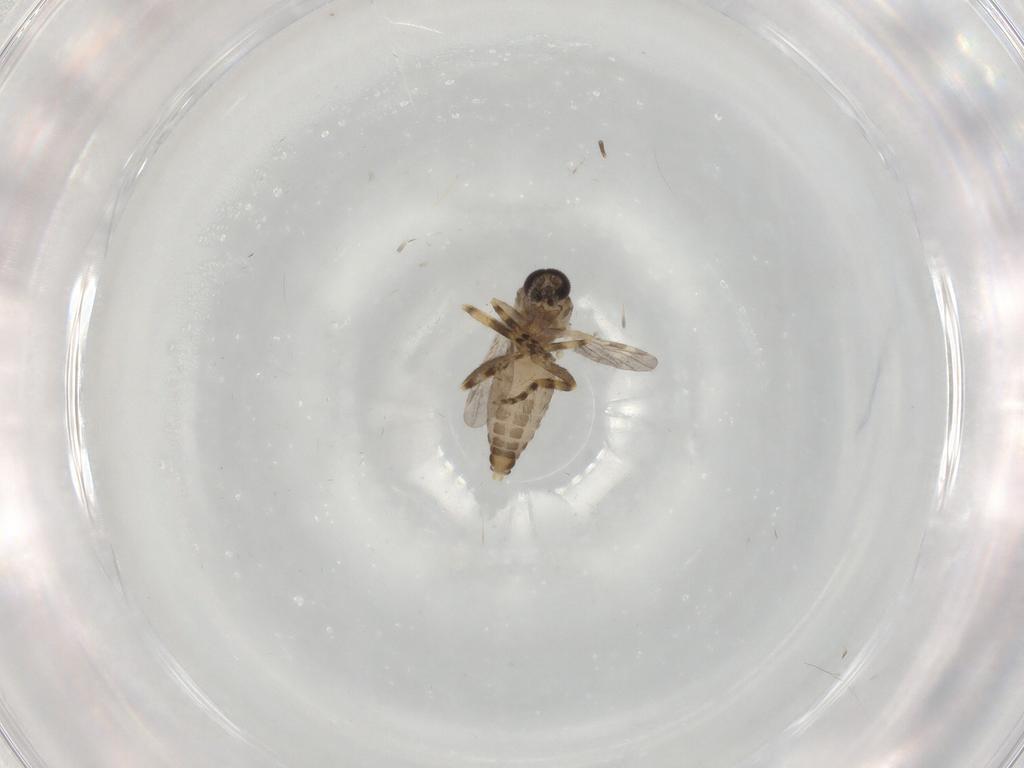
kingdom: Animalia
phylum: Arthropoda
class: Insecta
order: Diptera
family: Ceratopogonidae
